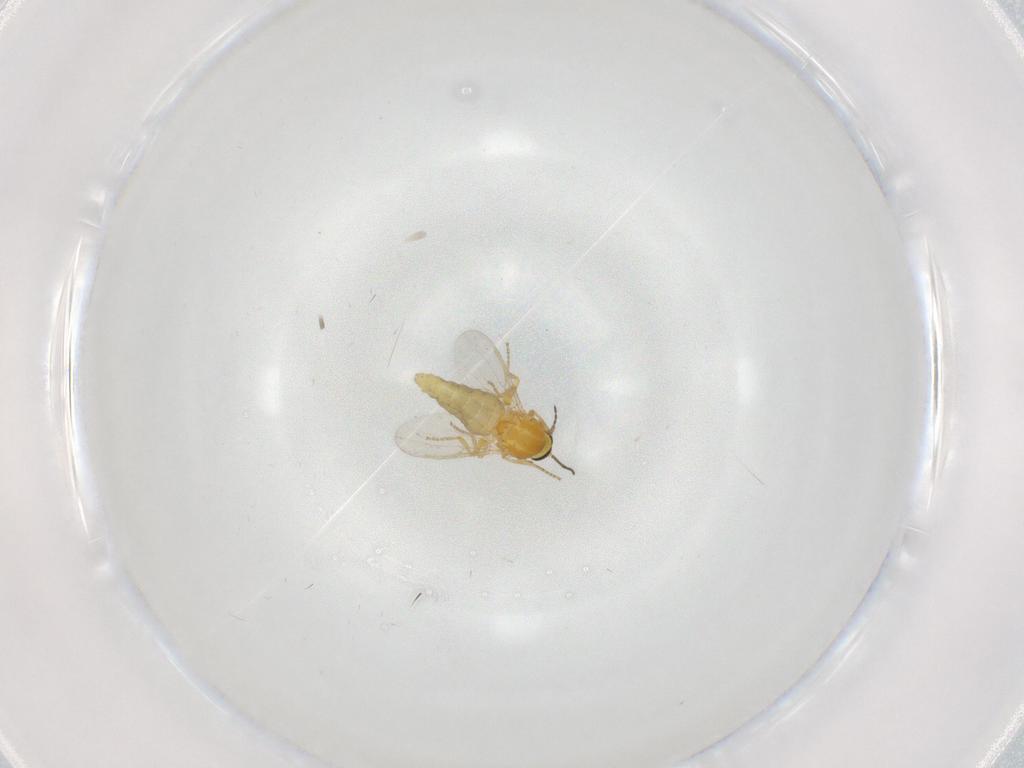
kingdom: Animalia
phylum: Arthropoda
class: Insecta
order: Diptera
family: Ceratopogonidae
